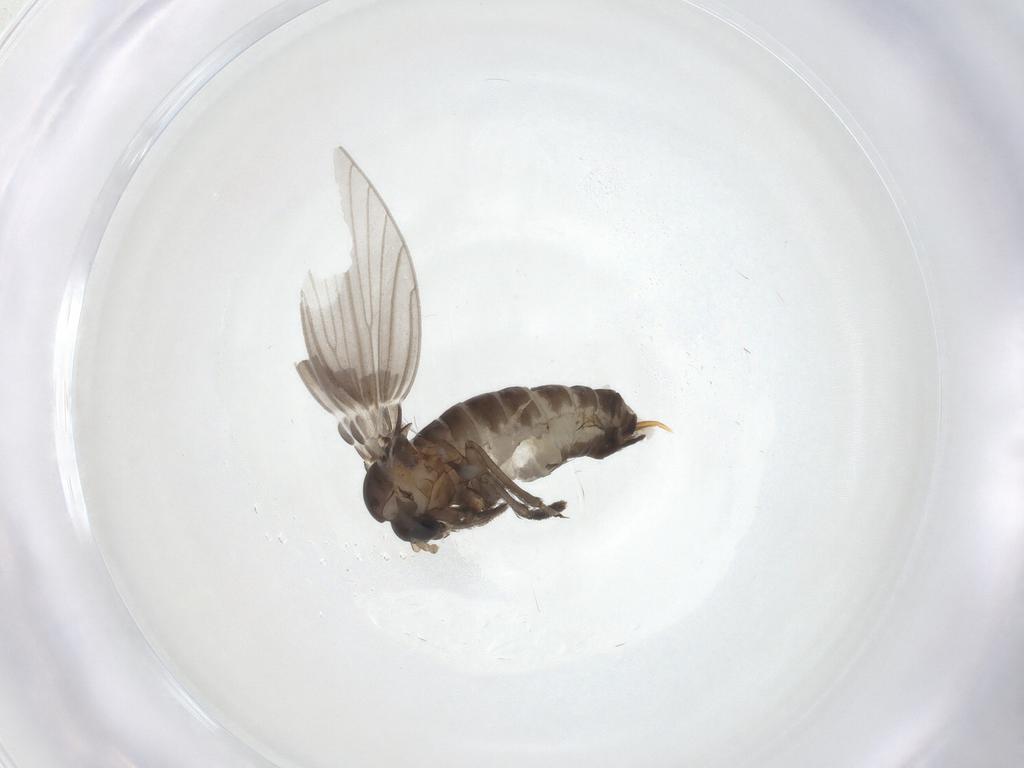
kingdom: Animalia
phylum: Arthropoda
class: Insecta
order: Diptera
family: Psychodidae
